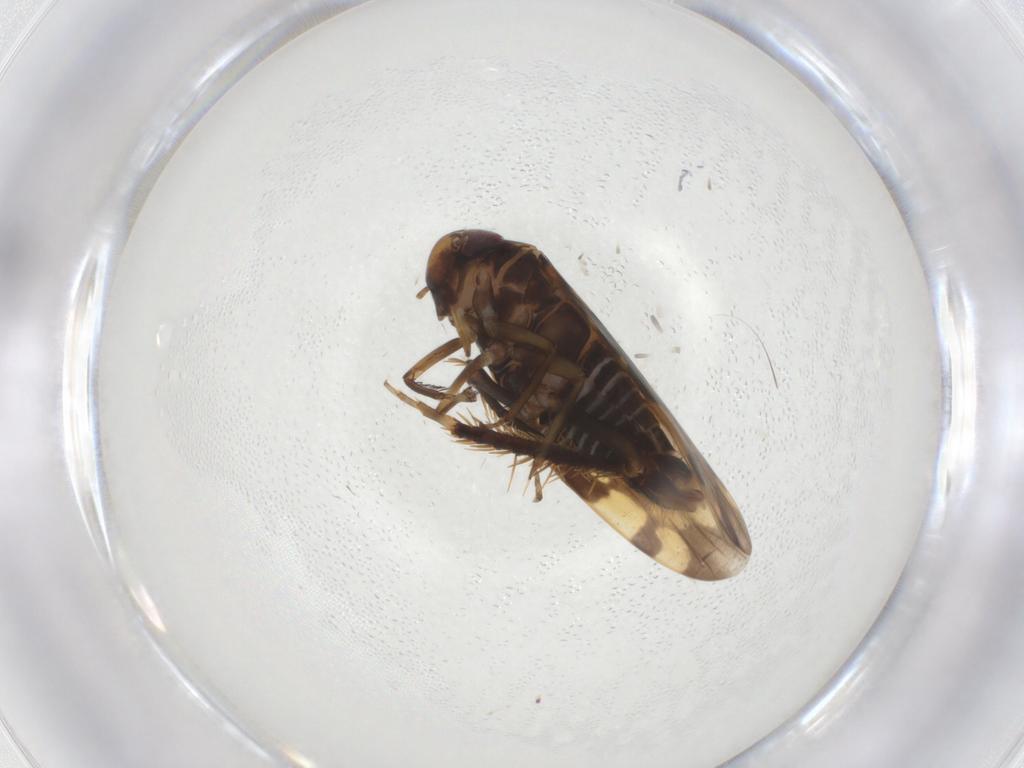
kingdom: Animalia
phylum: Arthropoda
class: Insecta
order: Hemiptera
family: Cicadellidae
